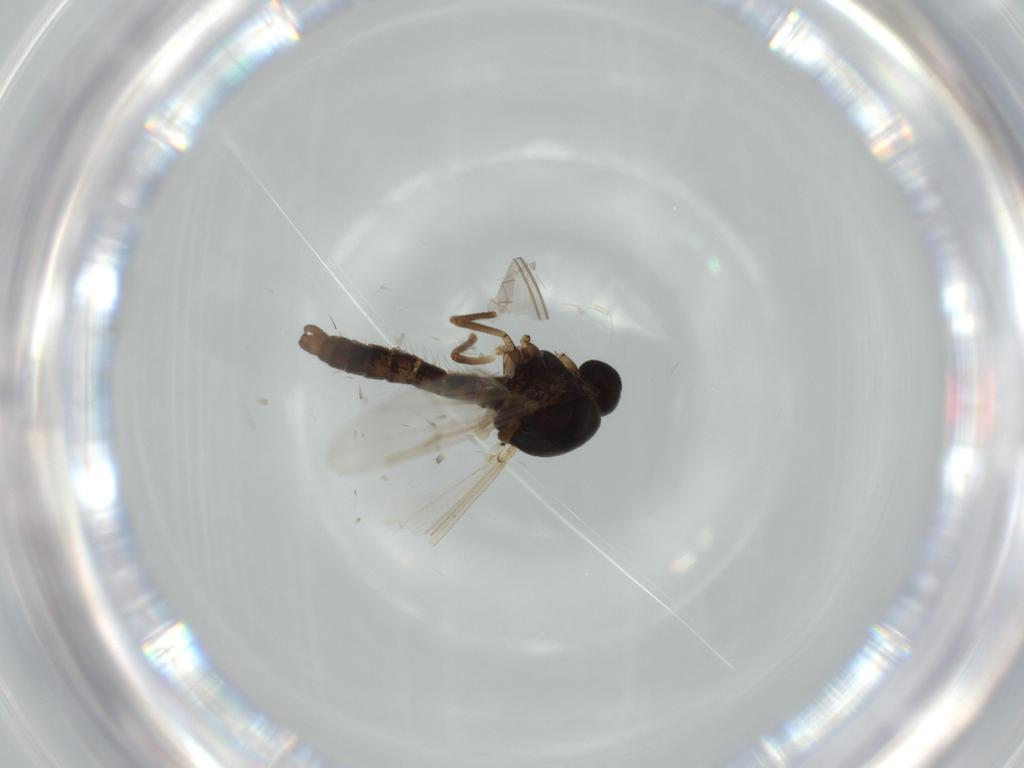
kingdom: Animalia
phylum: Arthropoda
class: Insecta
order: Diptera
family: Ceratopogonidae
